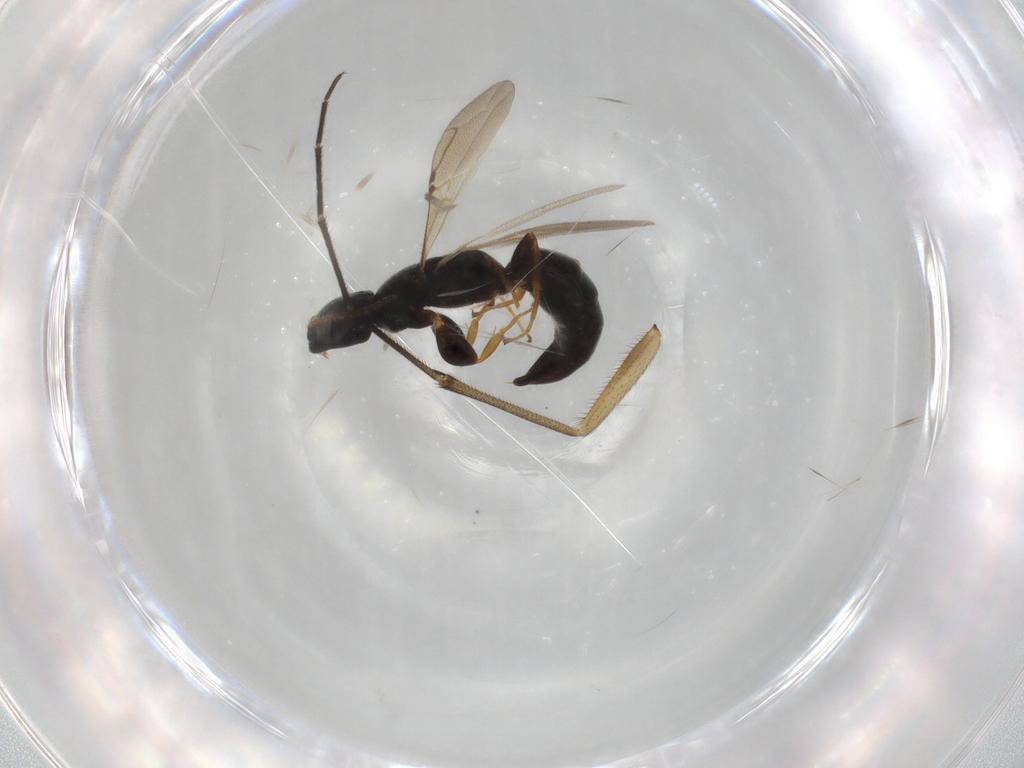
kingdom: Animalia
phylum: Arthropoda
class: Insecta
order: Hymenoptera
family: Bethylidae
